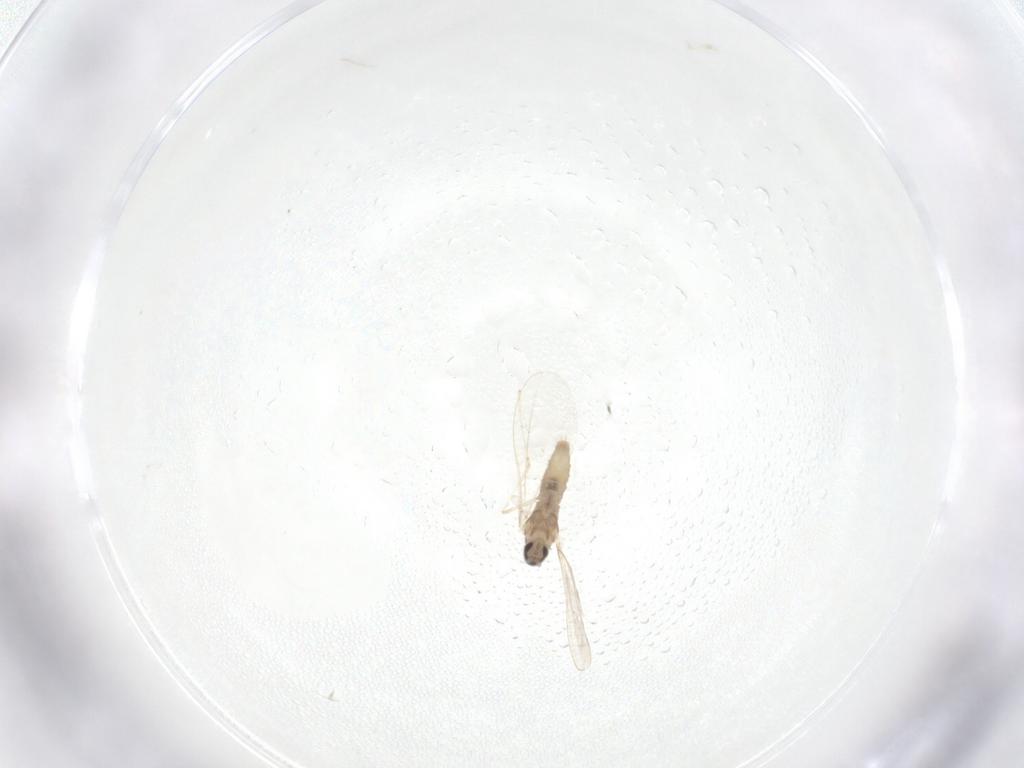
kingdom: Animalia
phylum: Arthropoda
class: Insecta
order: Diptera
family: Cecidomyiidae
